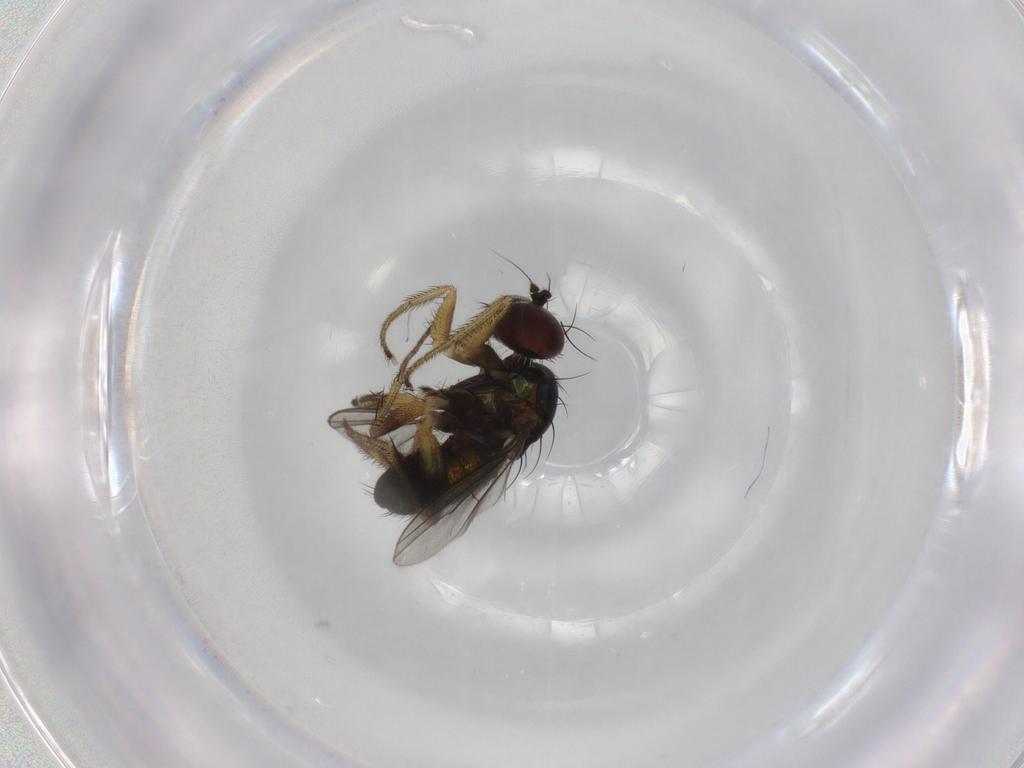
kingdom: Animalia
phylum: Arthropoda
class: Insecta
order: Diptera
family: Dolichopodidae
